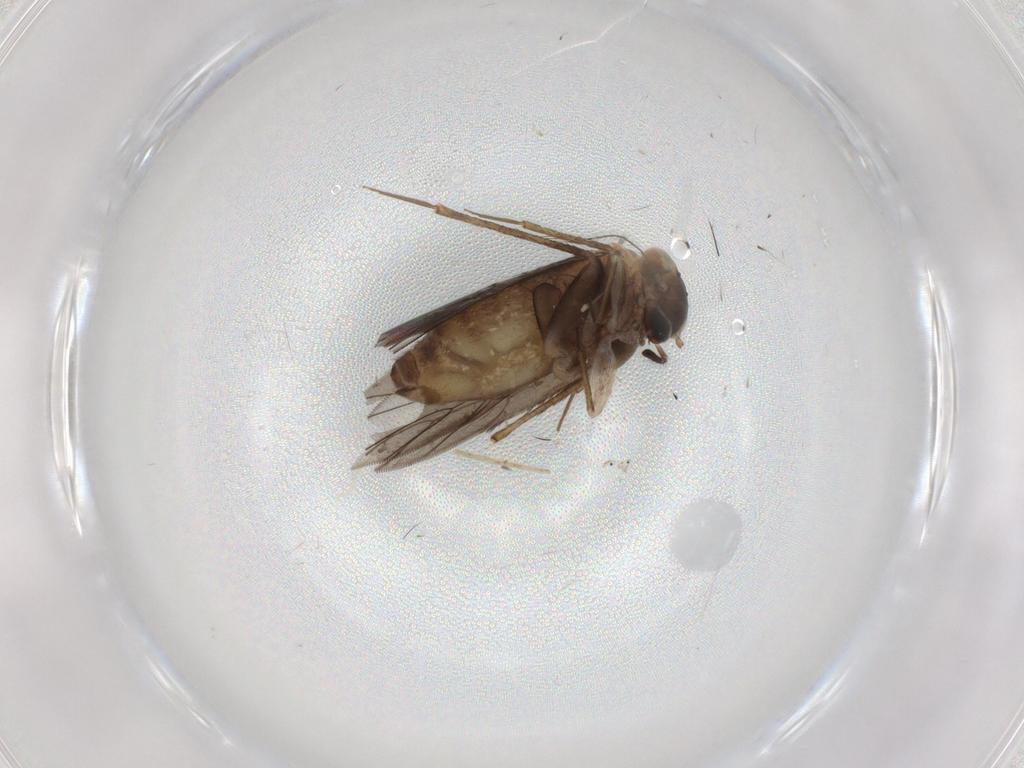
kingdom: Animalia
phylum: Arthropoda
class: Insecta
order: Psocodea
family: Lepidopsocidae
